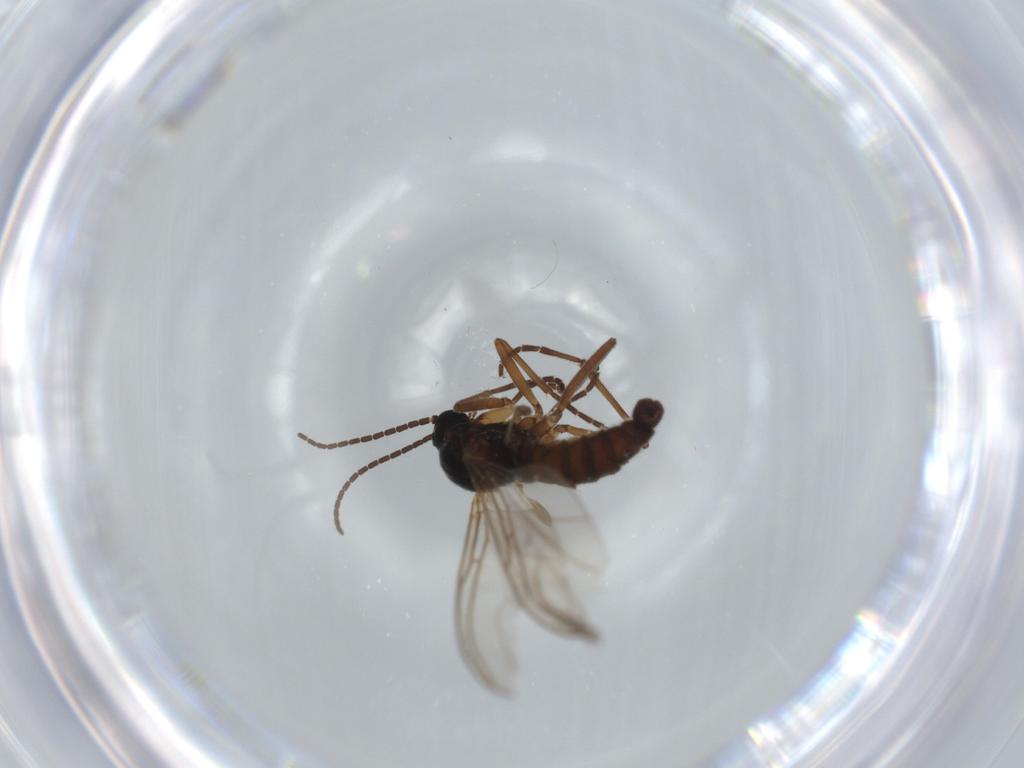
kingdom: Animalia
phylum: Arthropoda
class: Insecta
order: Diptera
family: Sciaridae
